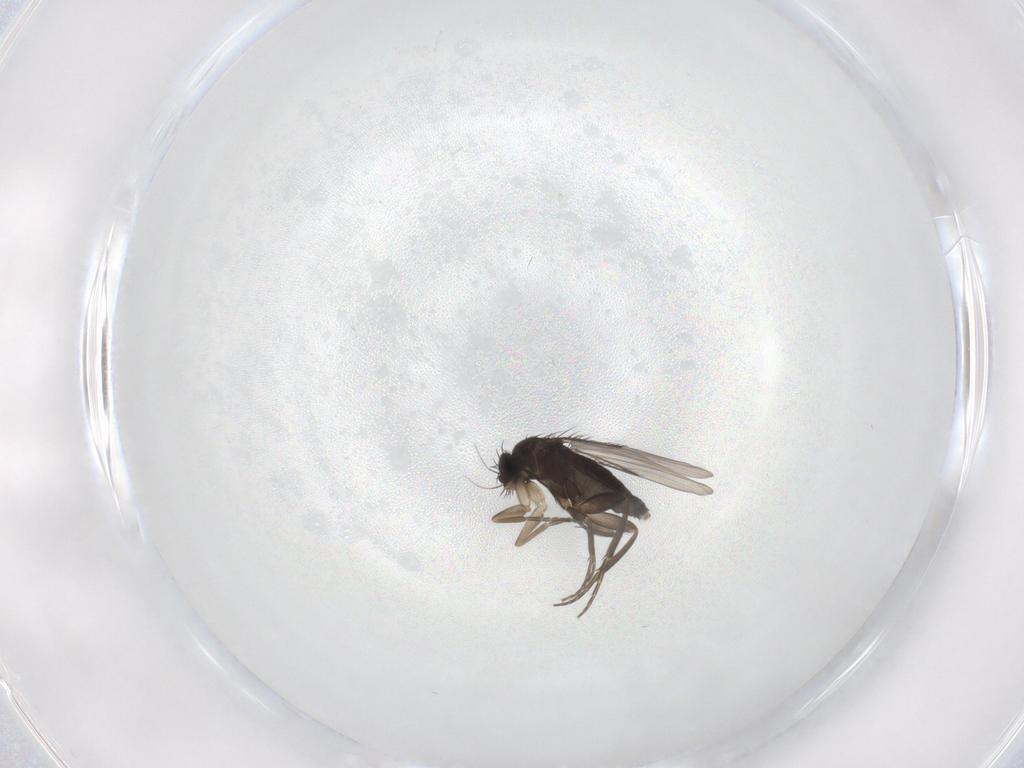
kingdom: Animalia
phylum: Arthropoda
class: Insecta
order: Diptera
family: Phoridae
